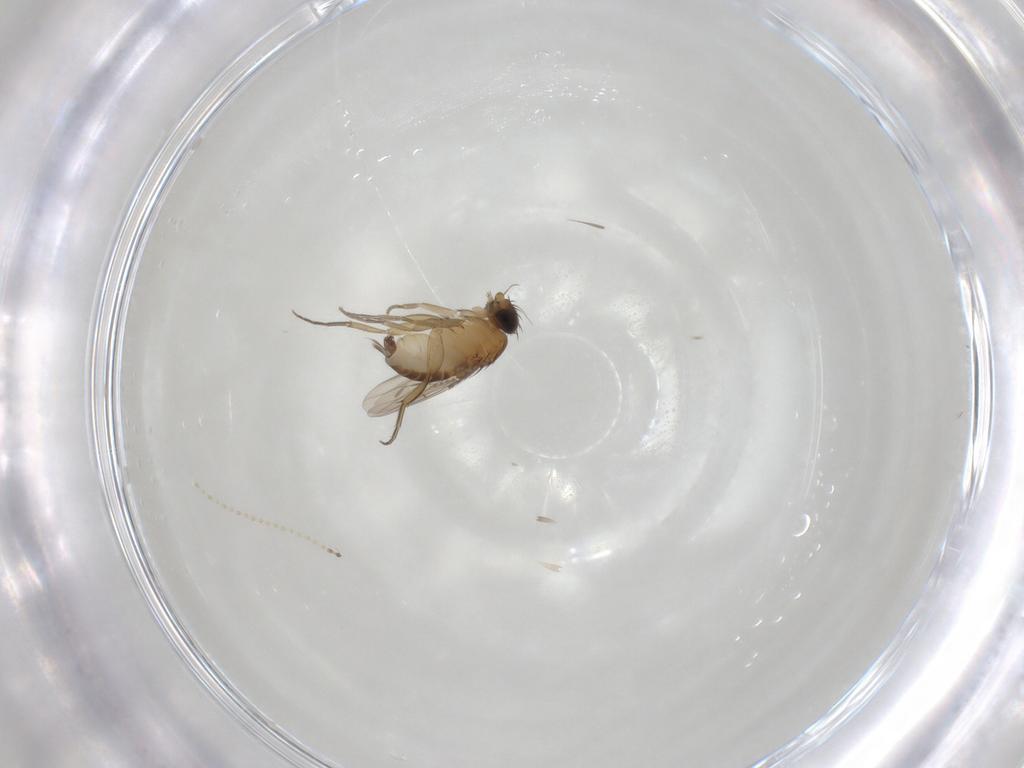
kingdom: Animalia
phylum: Arthropoda
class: Insecta
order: Diptera
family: Phoridae
